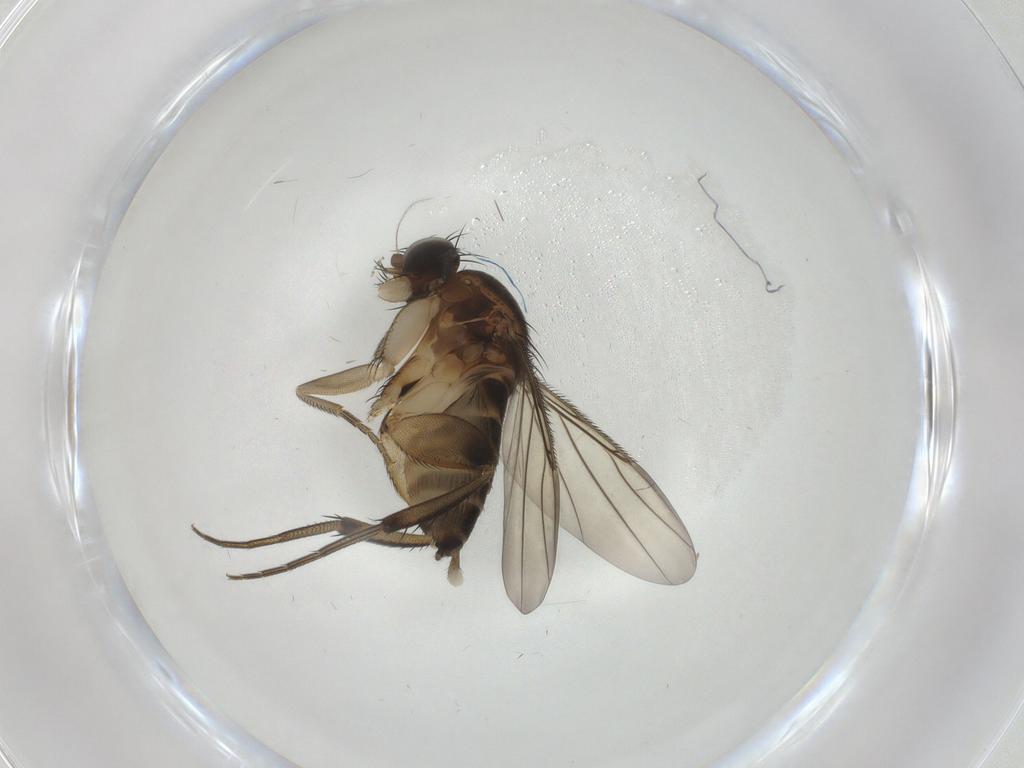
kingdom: Animalia
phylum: Arthropoda
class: Insecta
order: Diptera
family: Cecidomyiidae
